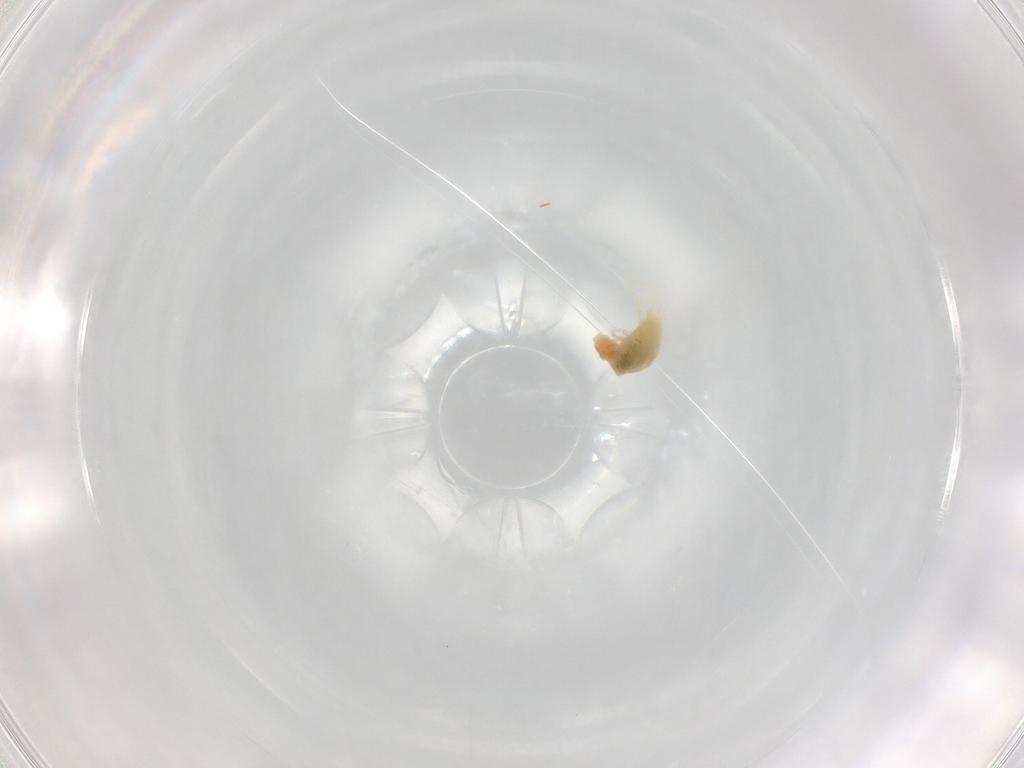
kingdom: Animalia
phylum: Arthropoda
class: Arachnida
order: Trombidiformes
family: Tetranychidae
